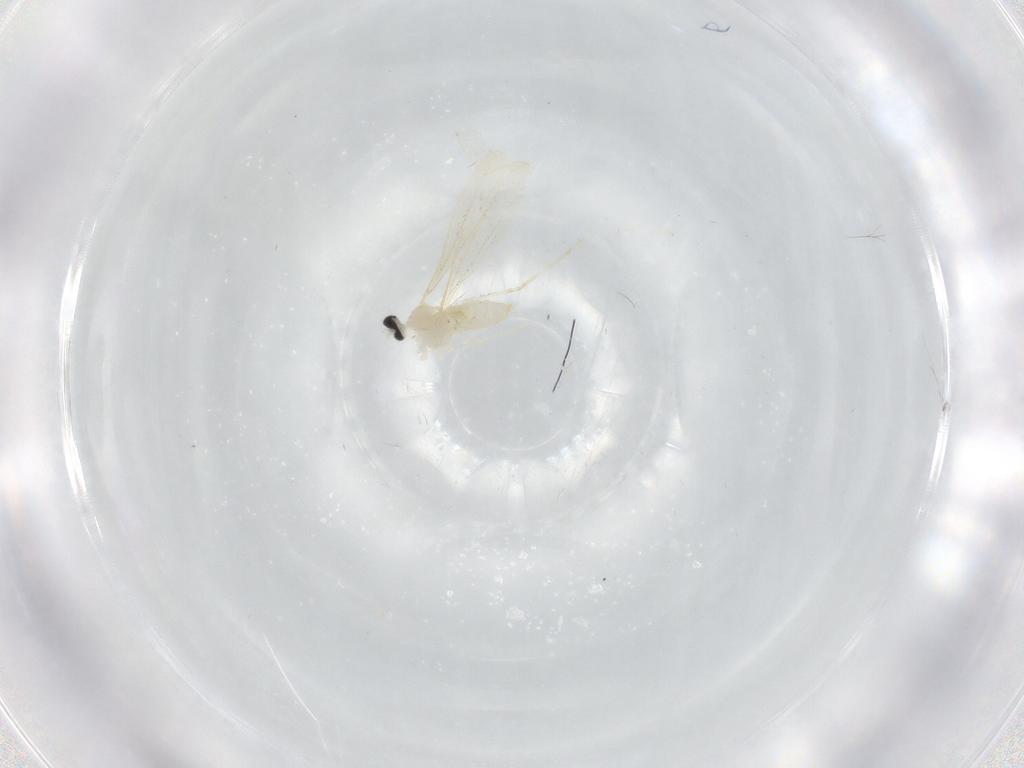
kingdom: Animalia
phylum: Arthropoda
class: Insecta
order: Diptera
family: Cecidomyiidae
